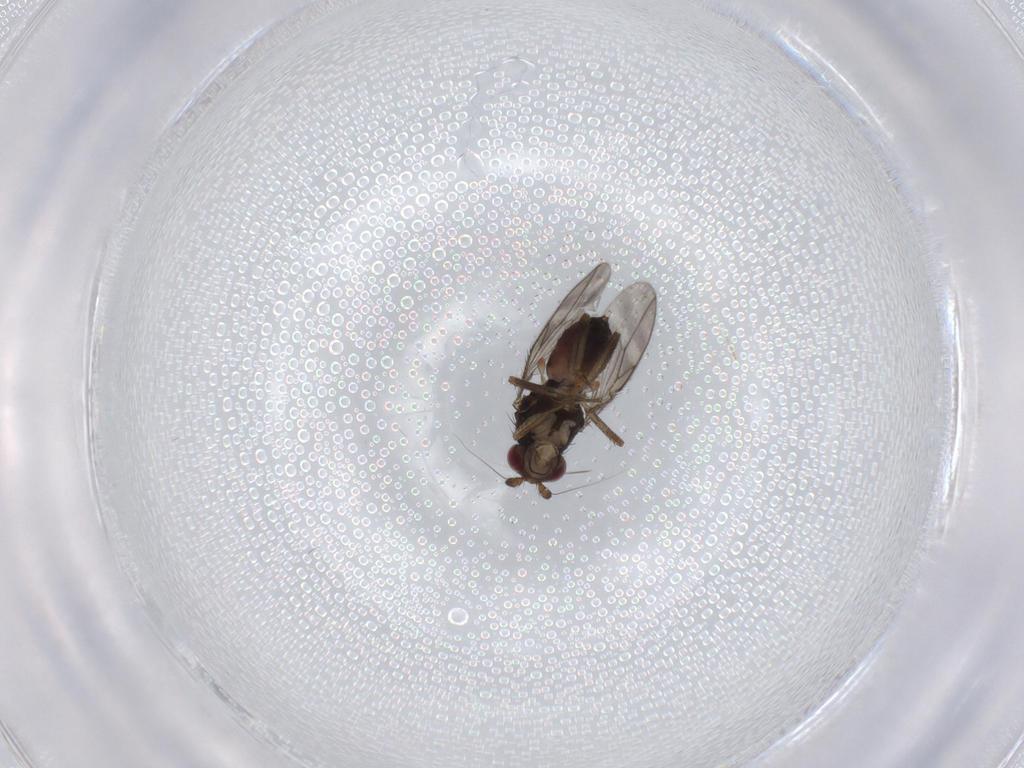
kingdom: Animalia
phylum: Arthropoda
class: Insecta
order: Diptera
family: Sphaeroceridae
